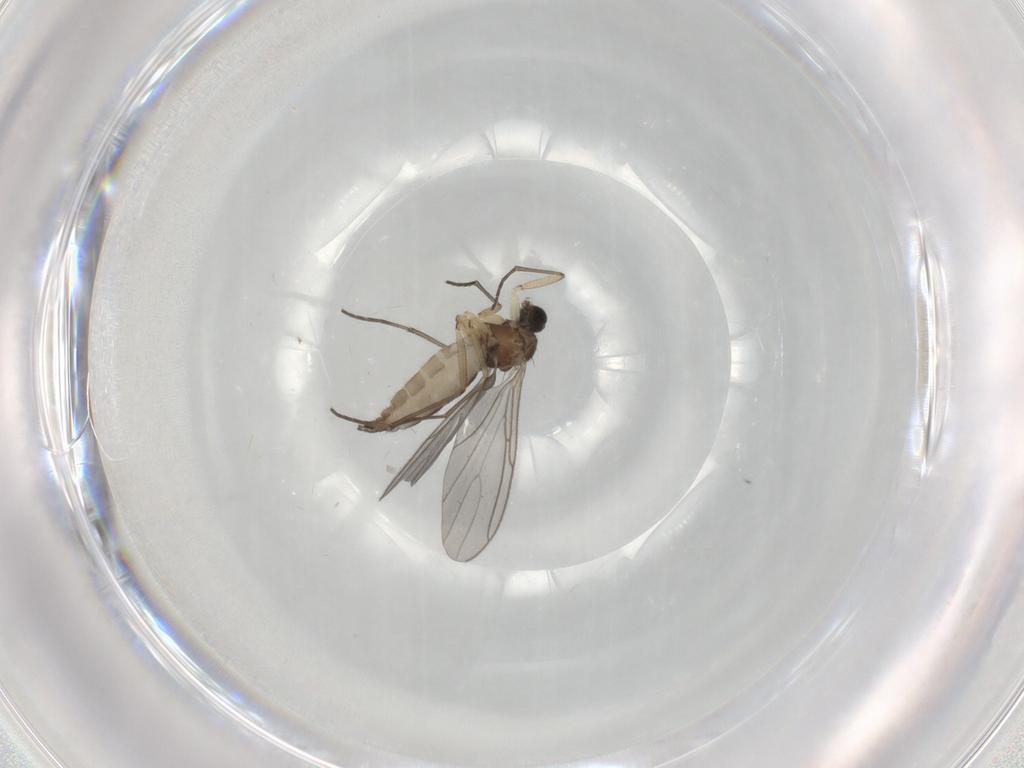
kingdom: Animalia
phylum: Arthropoda
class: Insecta
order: Diptera
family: Sciaridae
